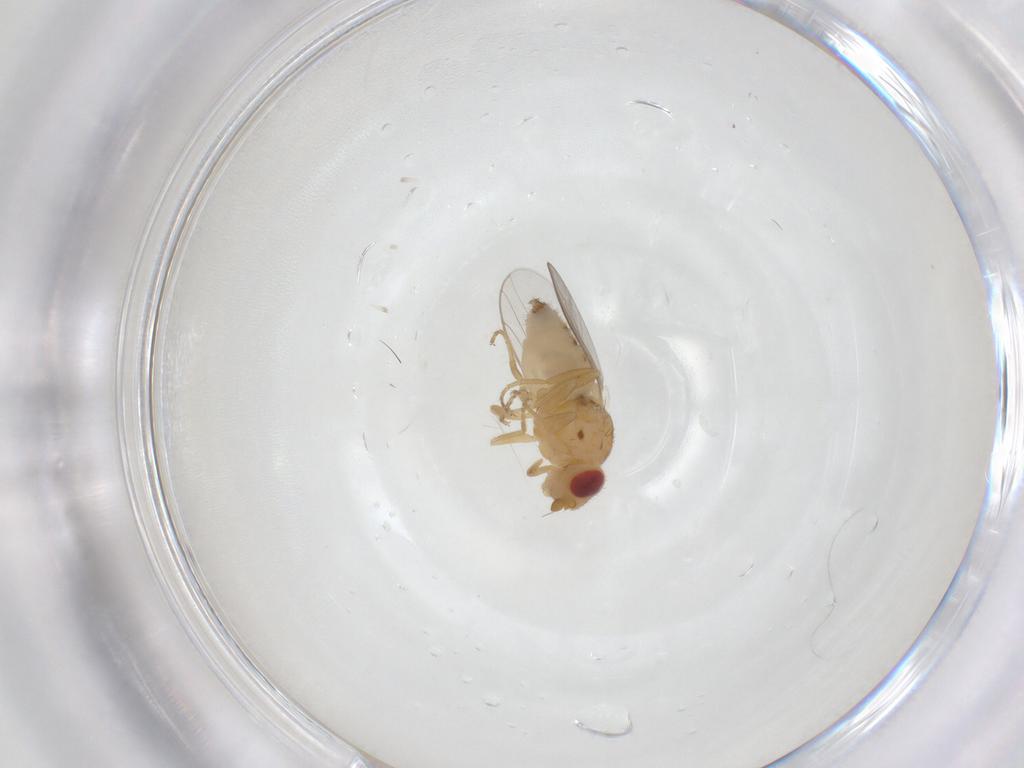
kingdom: Animalia
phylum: Arthropoda
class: Insecta
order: Diptera
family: Chloropidae
